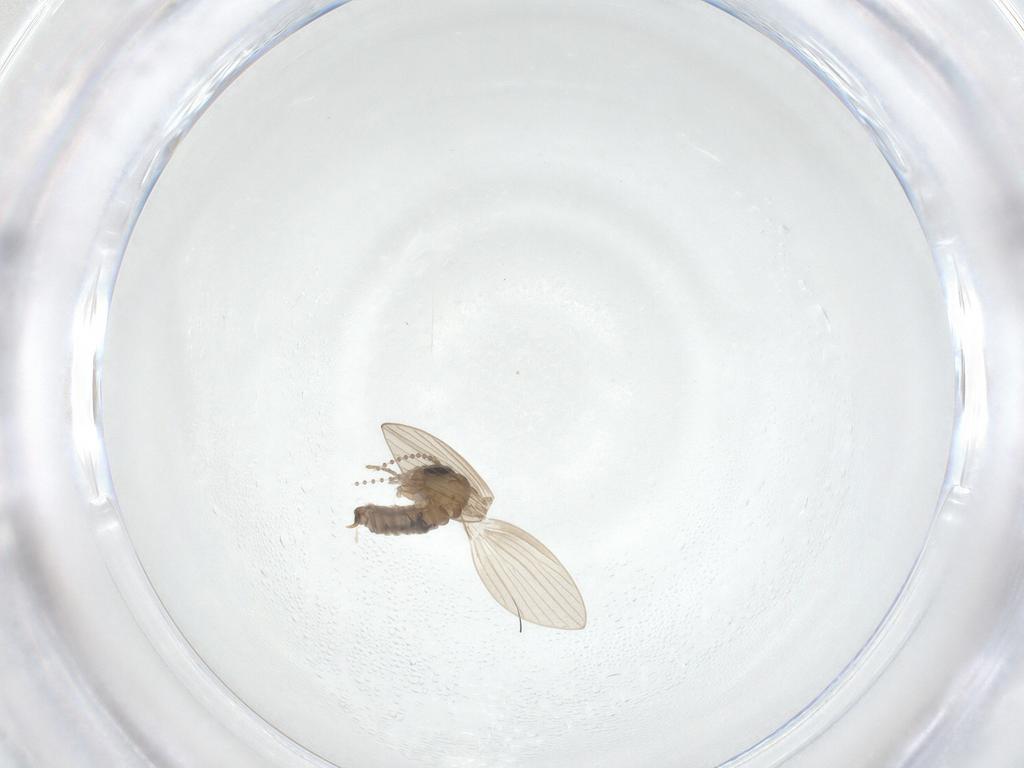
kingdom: Animalia
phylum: Arthropoda
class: Insecta
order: Diptera
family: Psychodidae
